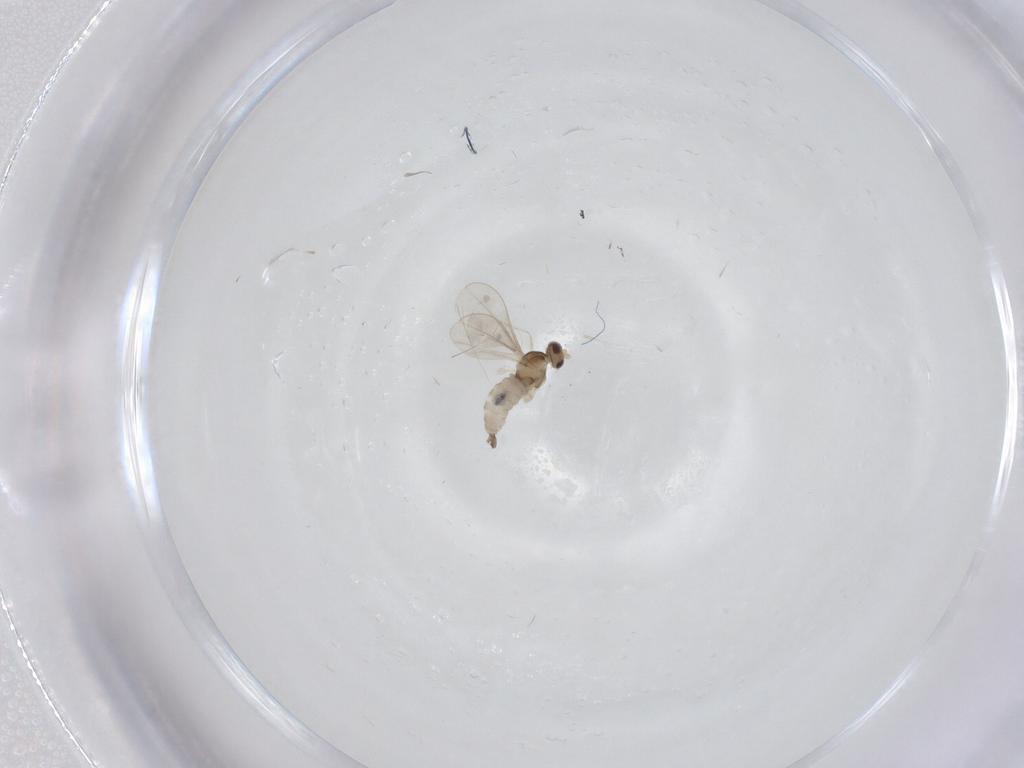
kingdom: Animalia
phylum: Arthropoda
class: Insecta
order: Diptera
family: Cecidomyiidae
